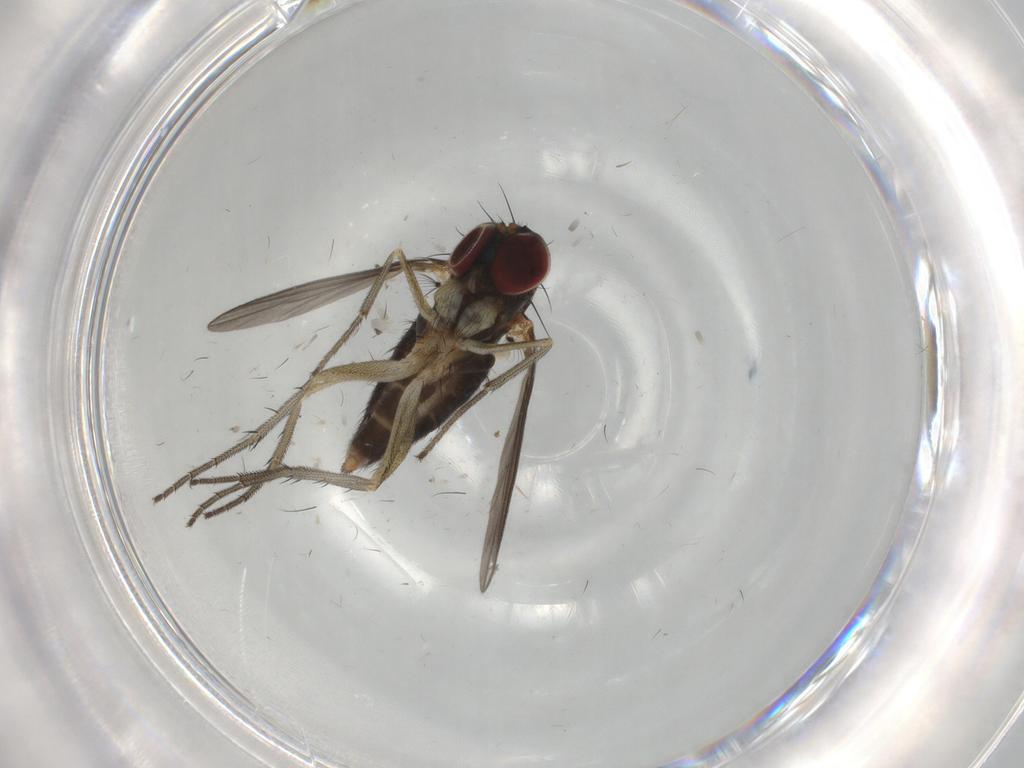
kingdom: Animalia
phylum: Arthropoda
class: Insecta
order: Diptera
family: Dolichopodidae
